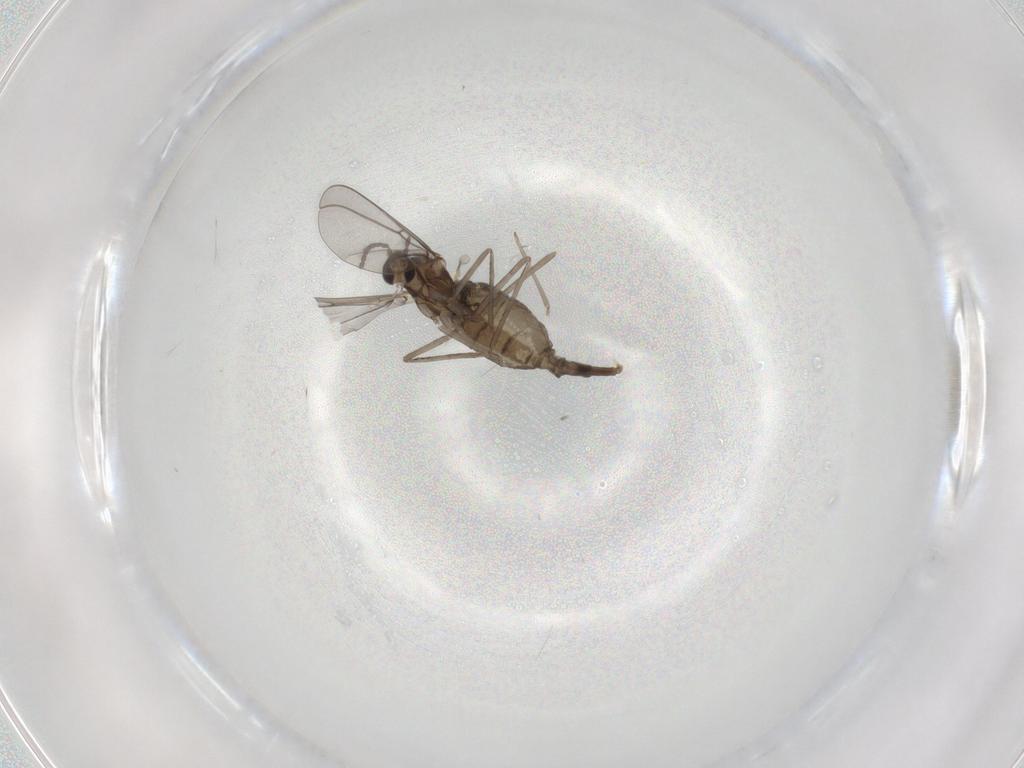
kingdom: Animalia
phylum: Arthropoda
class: Insecta
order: Diptera
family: Cecidomyiidae
